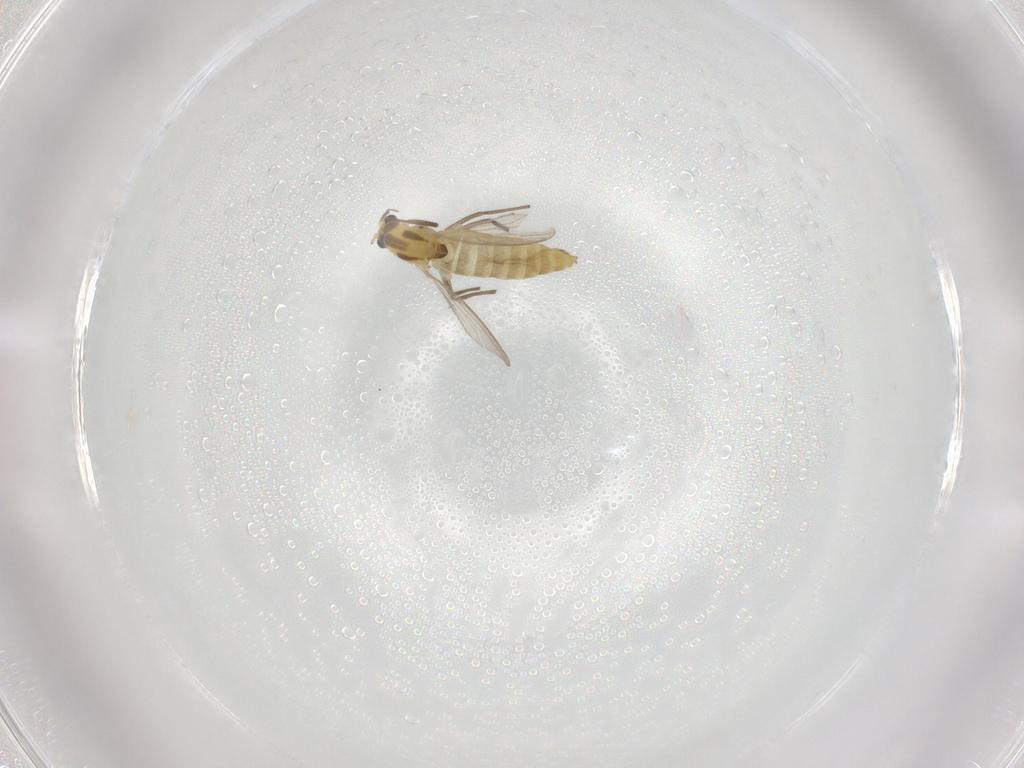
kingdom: Animalia
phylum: Arthropoda
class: Insecta
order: Diptera
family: Chironomidae
